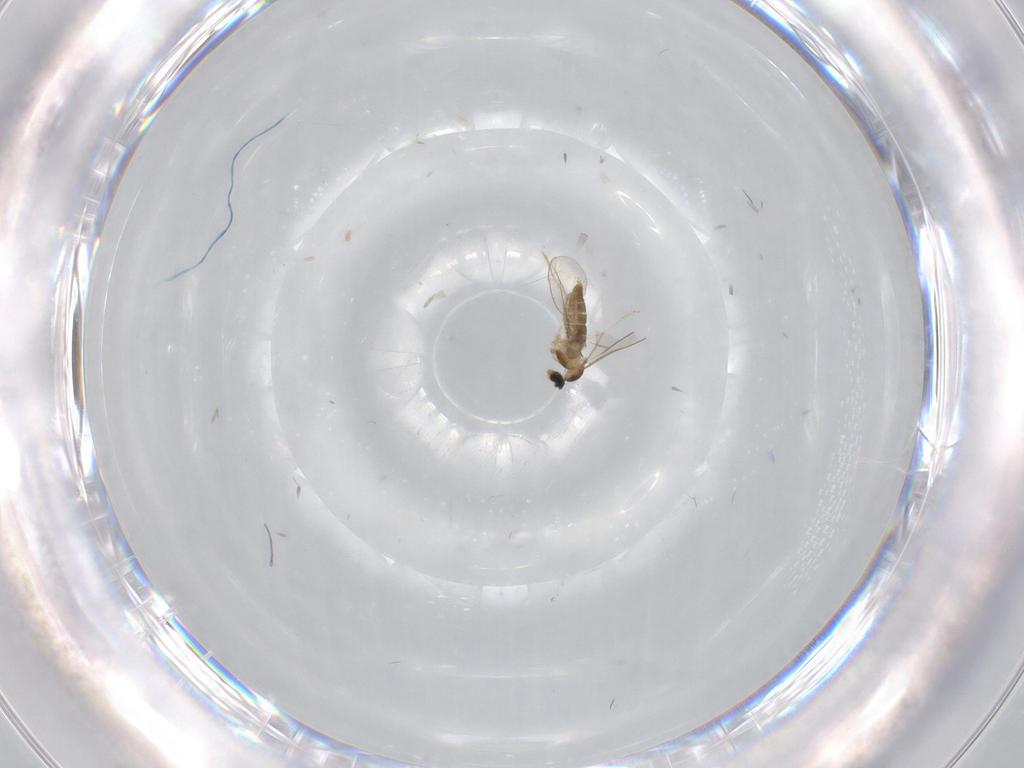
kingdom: Animalia
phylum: Arthropoda
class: Insecta
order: Diptera
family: Cecidomyiidae
